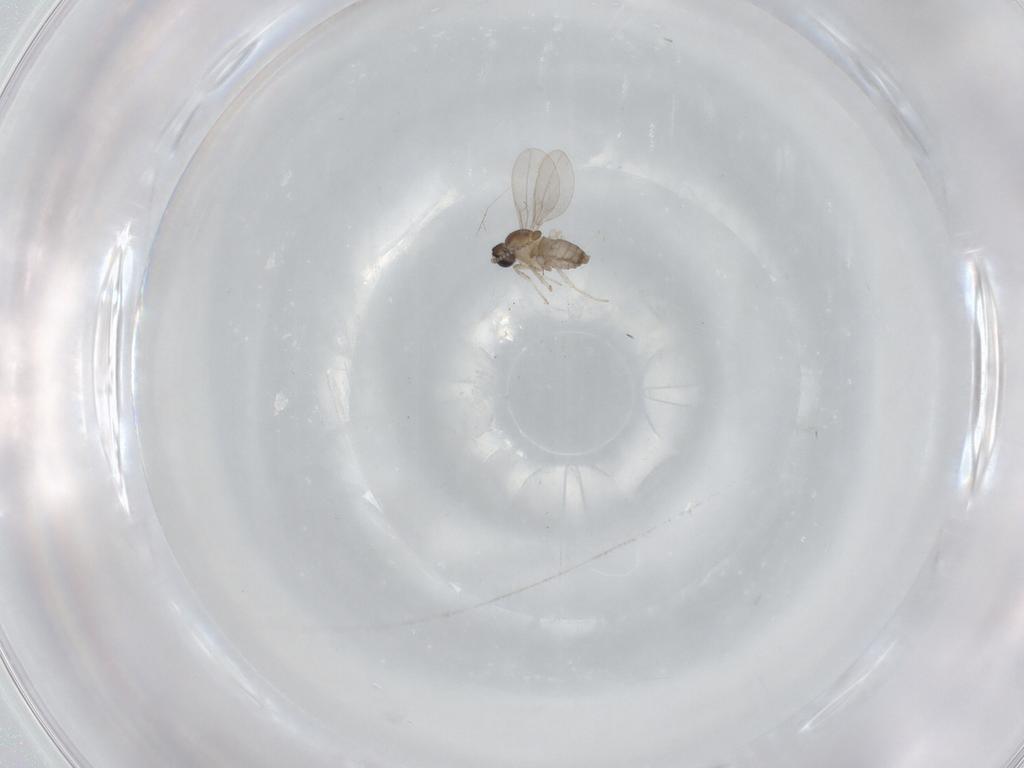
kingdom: Animalia
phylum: Arthropoda
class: Insecta
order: Diptera
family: Cecidomyiidae
